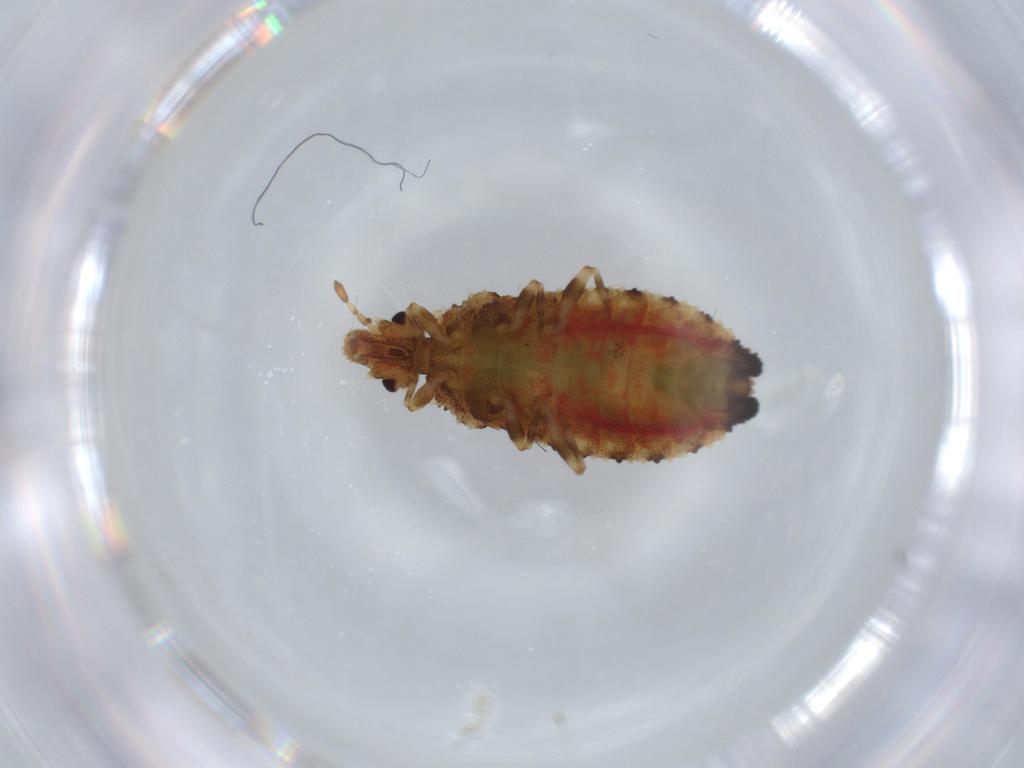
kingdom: Animalia
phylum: Arthropoda
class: Insecta
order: Hemiptera
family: Aradidae
